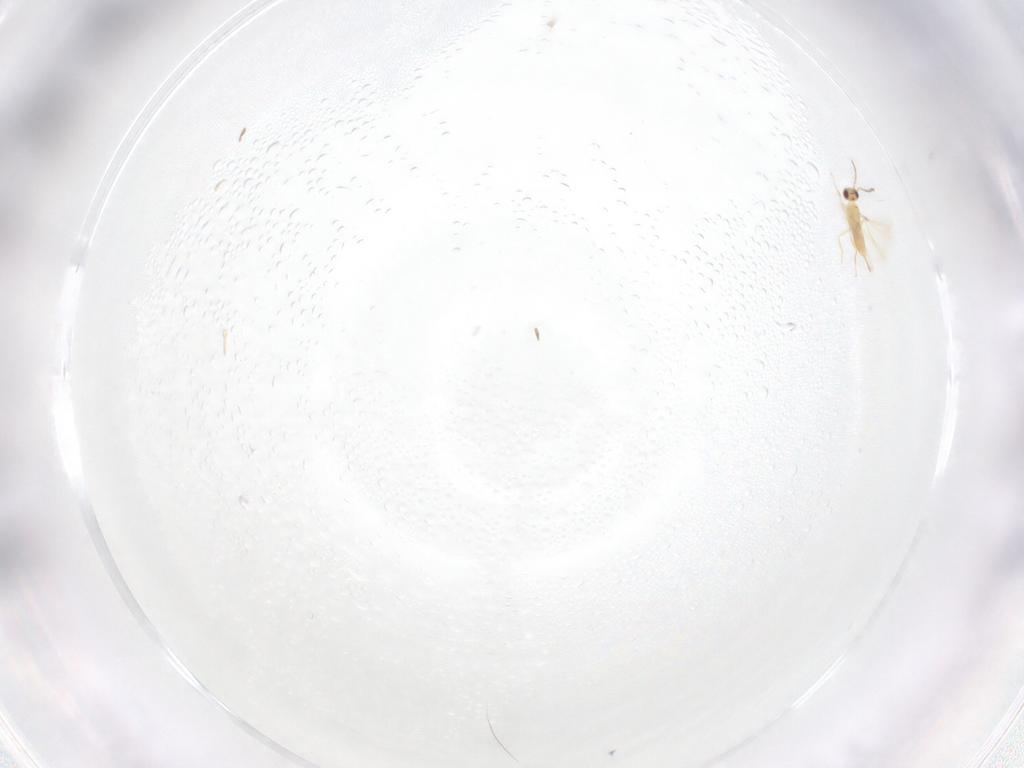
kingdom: Animalia
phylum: Arthropoda
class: Insecta
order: Hymenoptera
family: Mymaridae
